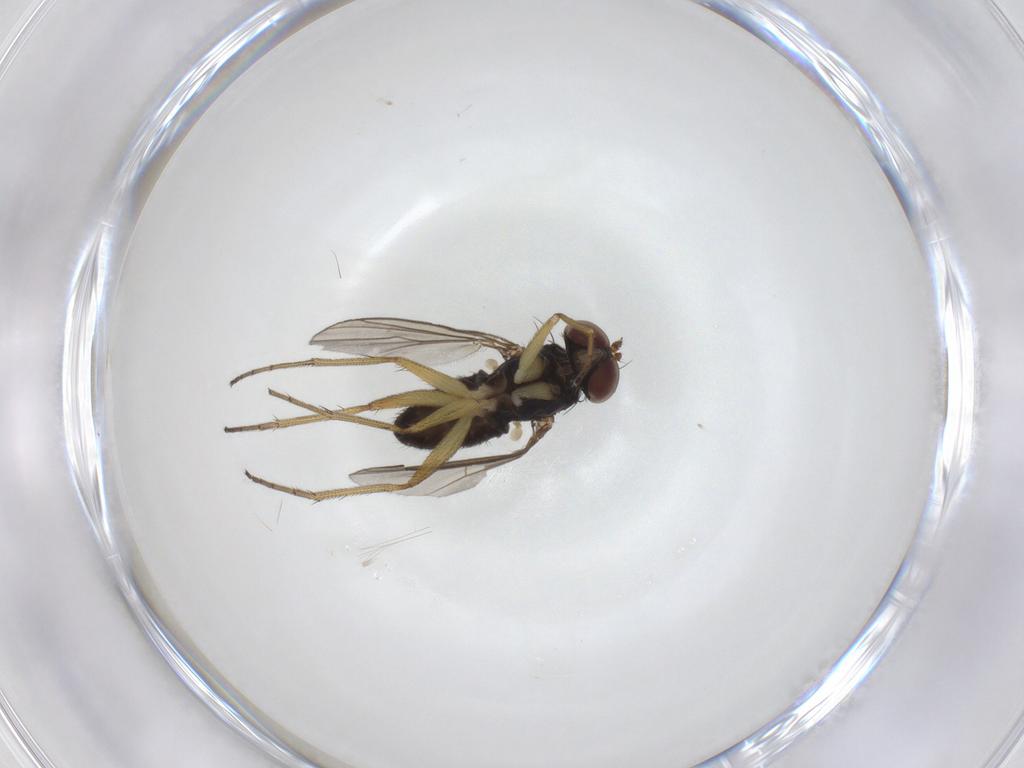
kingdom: Animalia
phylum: Arthropoda
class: Insecta
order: Diptera
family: Dolichopodidae
